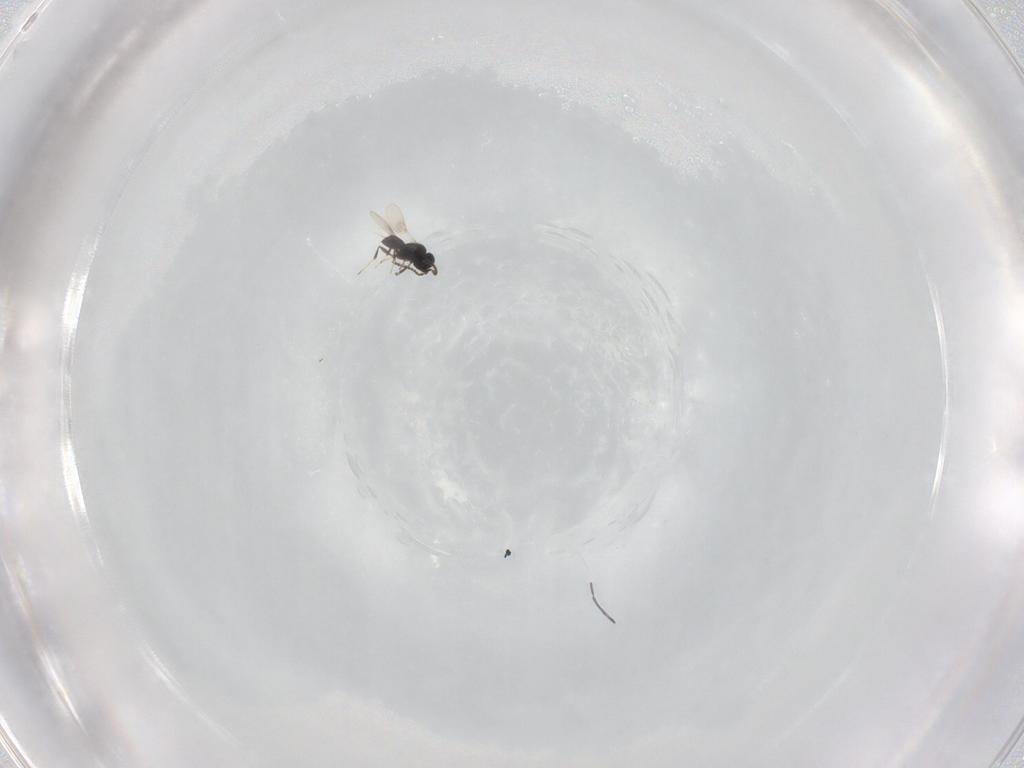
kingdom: Animalia
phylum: Arthropoda
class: Insecta
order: Hymenoptera
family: Scelionidae
